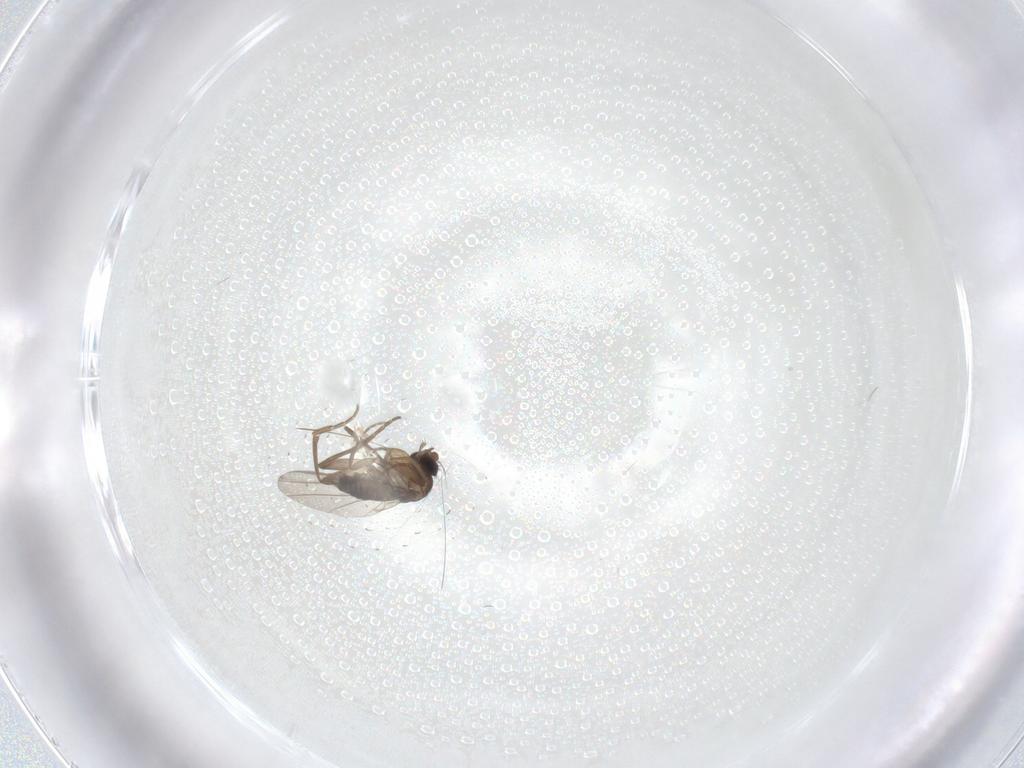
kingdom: Animalia
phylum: Arthropoda
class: Insecta
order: Diptera
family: Phoridae
